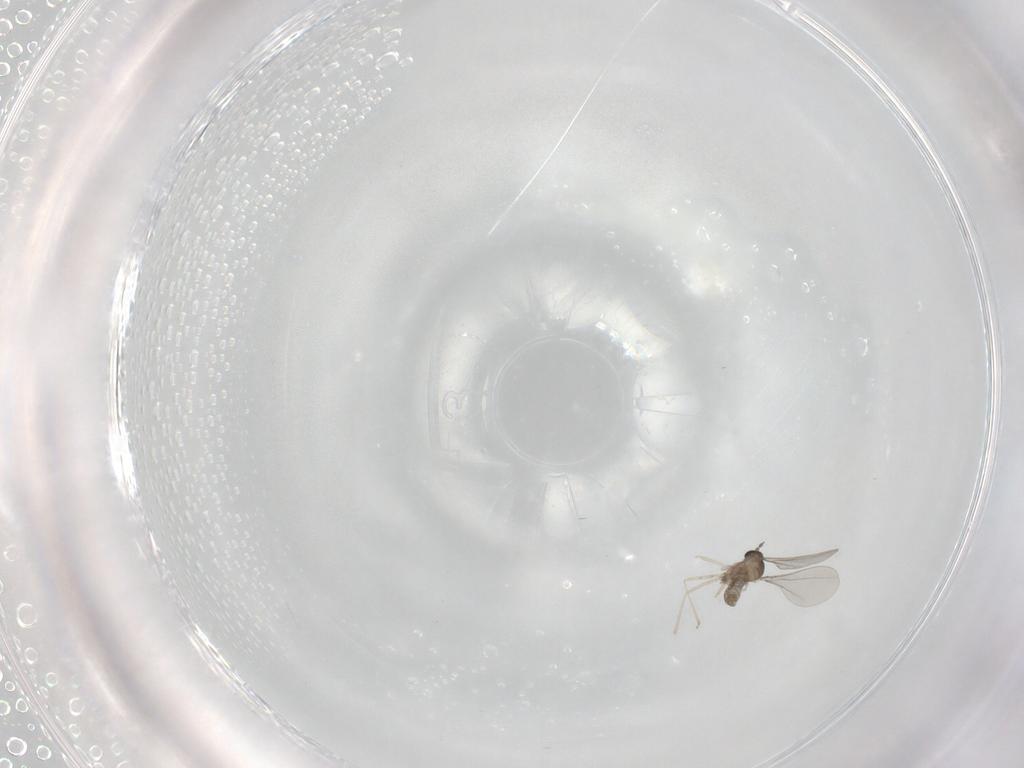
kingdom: Animalia
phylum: Arthropoda
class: Insecta
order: Diptera
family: Cecidomyiidae
